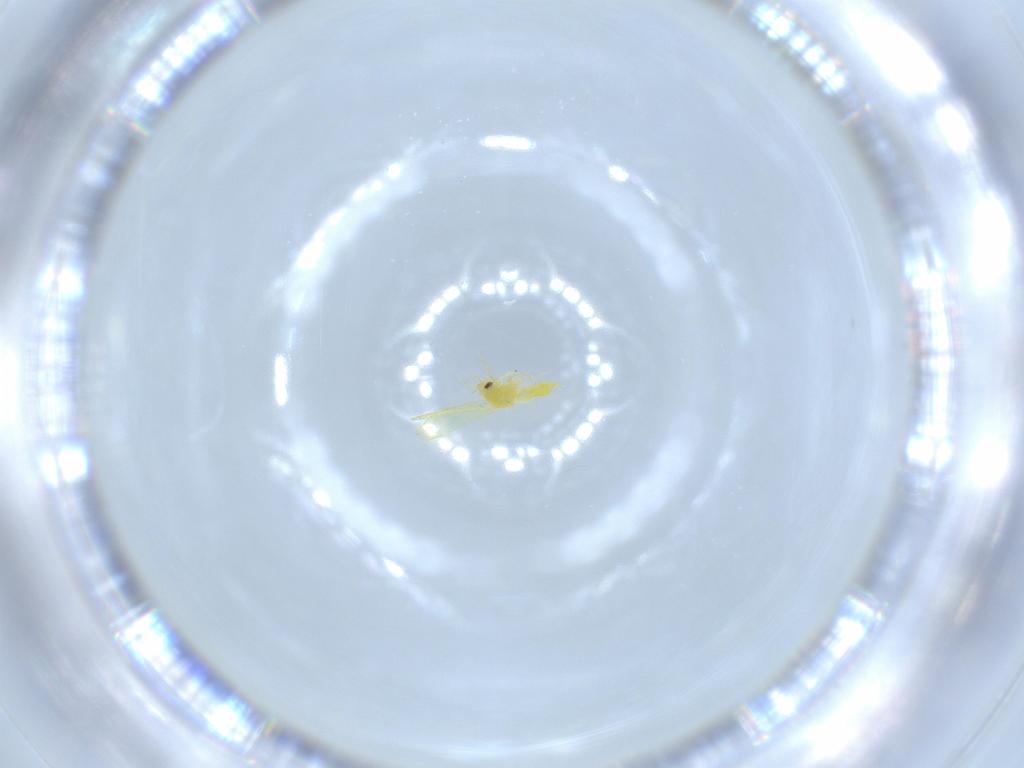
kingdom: Animalia
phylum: Arthropoda
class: Insecta
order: Hemiptera
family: Aleyrodidae
